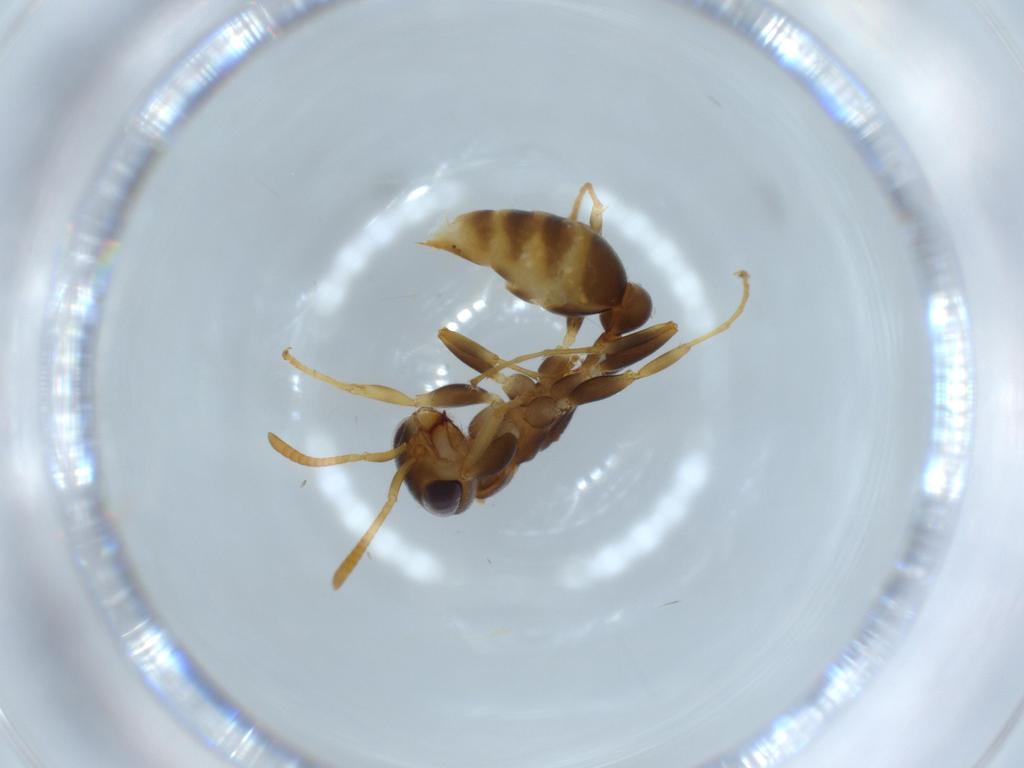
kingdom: Animalia
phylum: Arthropoda
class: Insecta
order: Hymenoptera
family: Formicidae
